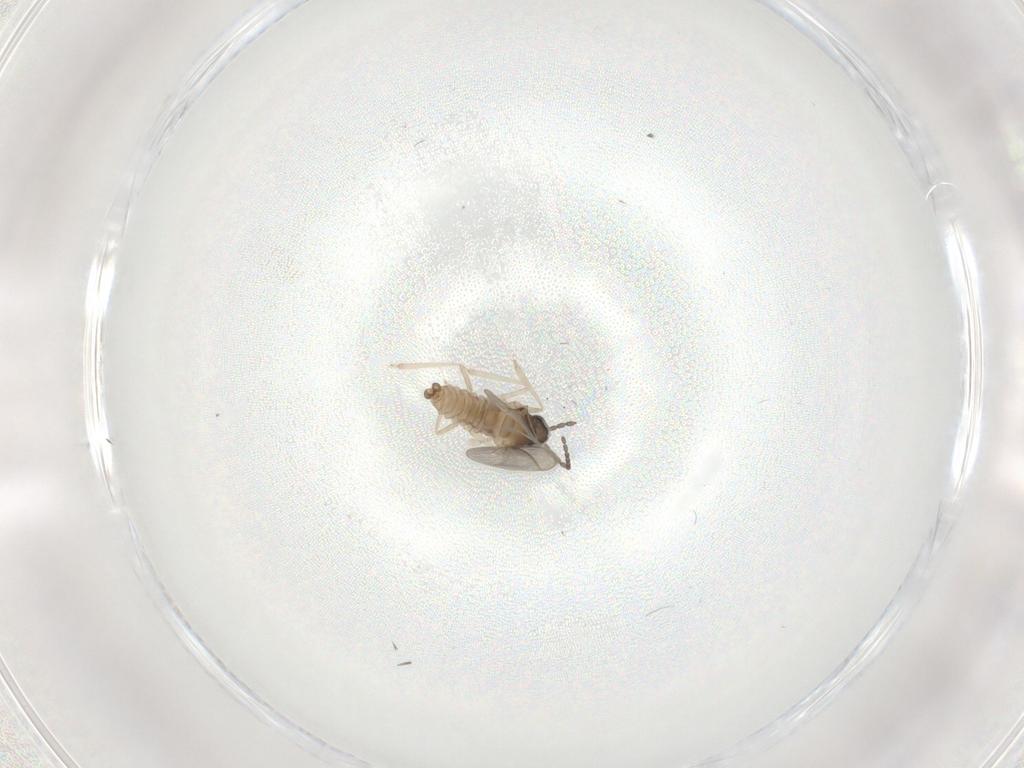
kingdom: Animalia
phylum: Arthropoda
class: Insecta
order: Diptera
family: Cecidomyiidae
